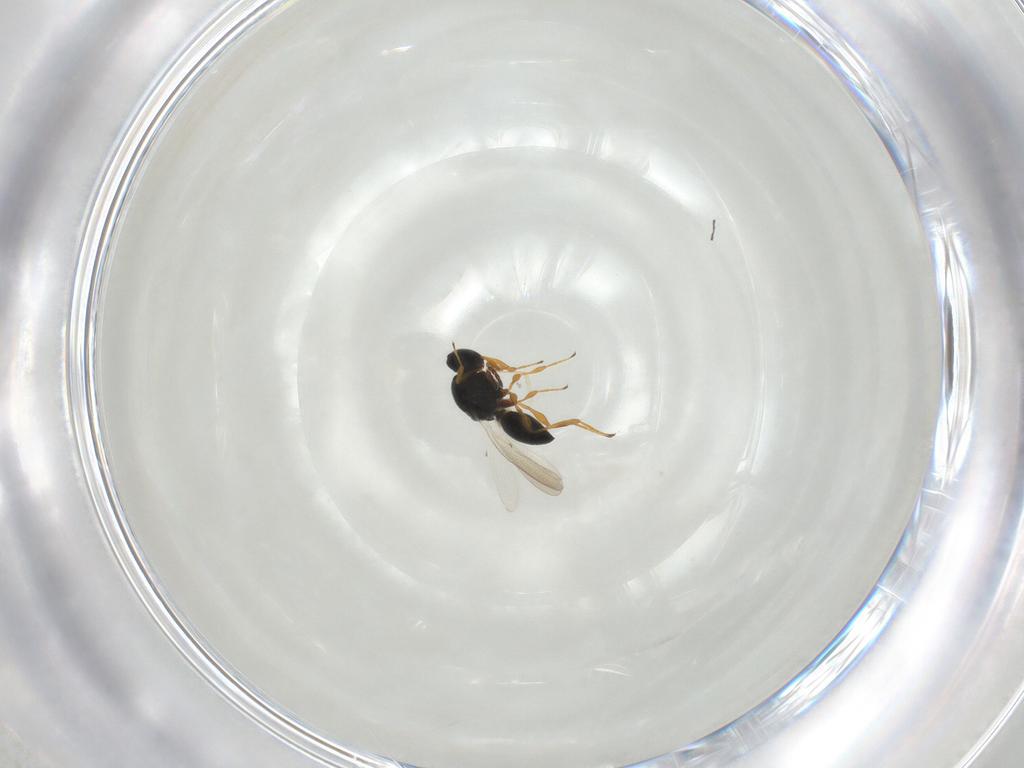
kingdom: Animalia
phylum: Arthropoda
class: Insecta
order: Hymenoptera
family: Platygastridae
